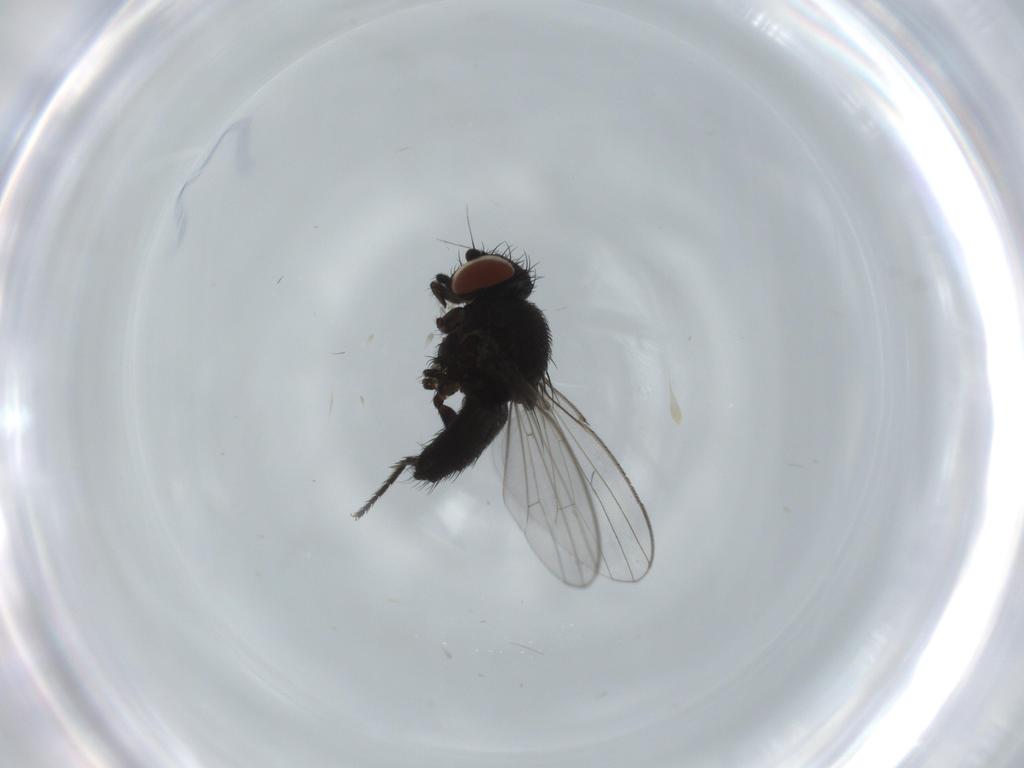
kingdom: Animalia
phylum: Arthropoda
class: Insecta
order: Diptera
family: Milichiidae
